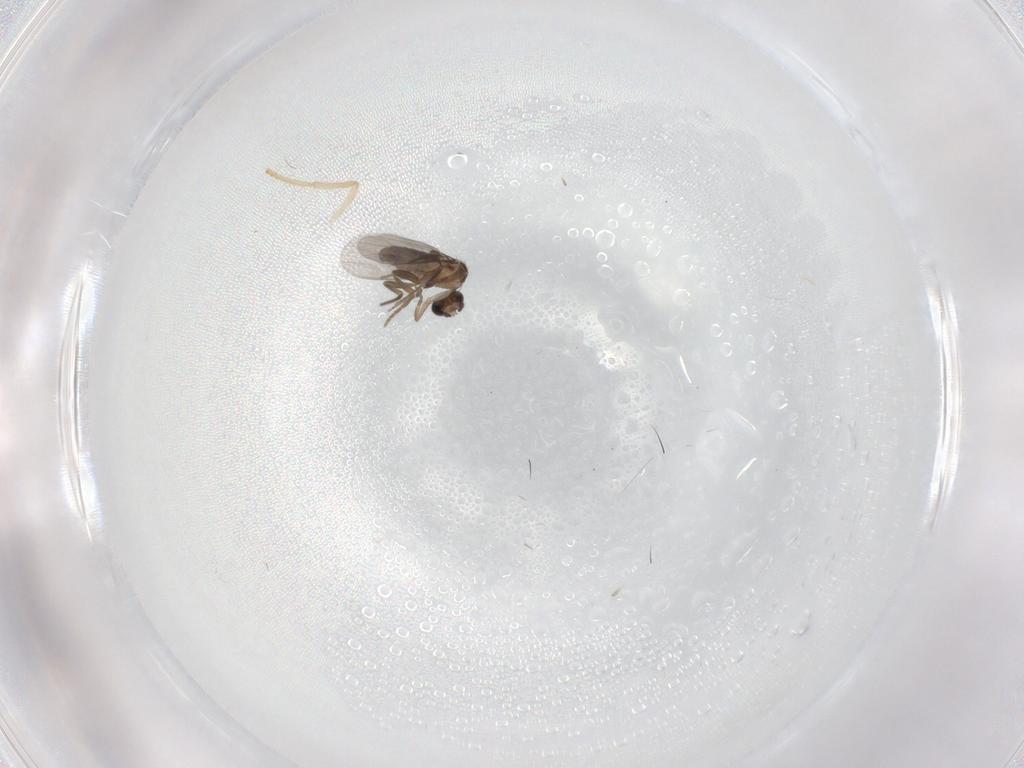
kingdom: Animalia
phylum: Arthropoda
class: Insecta
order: Diptera
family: Psychodidae
